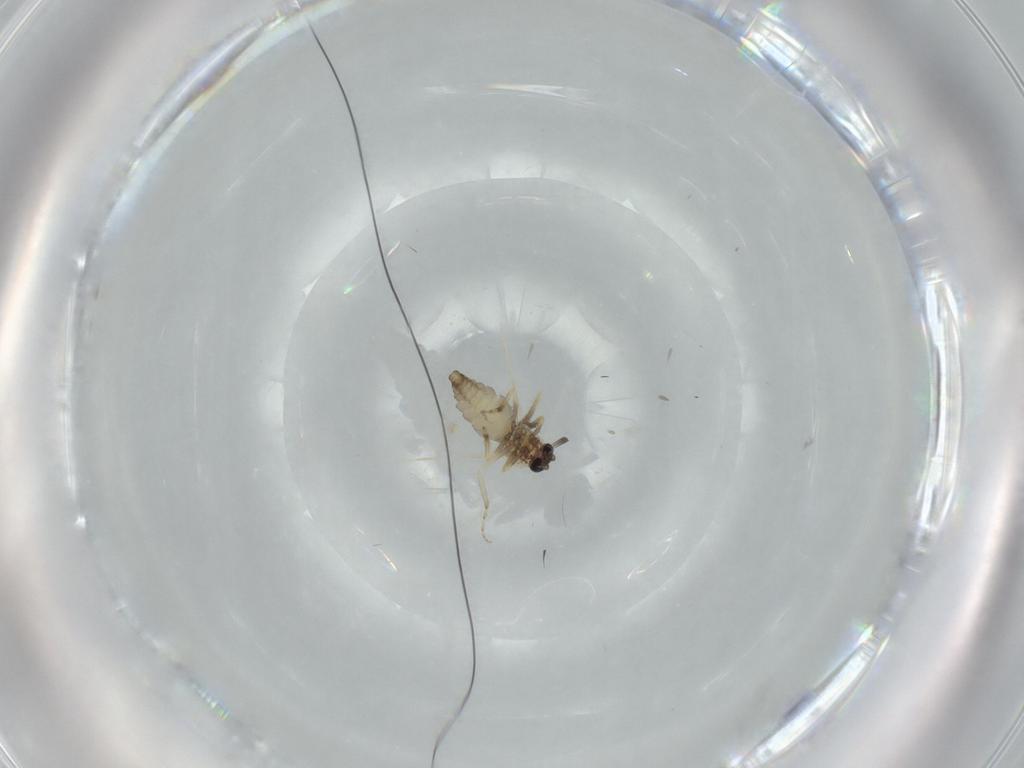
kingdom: Animalia
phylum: Arthropoda
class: Insecta
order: Diptera
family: Ceratopogonidae
